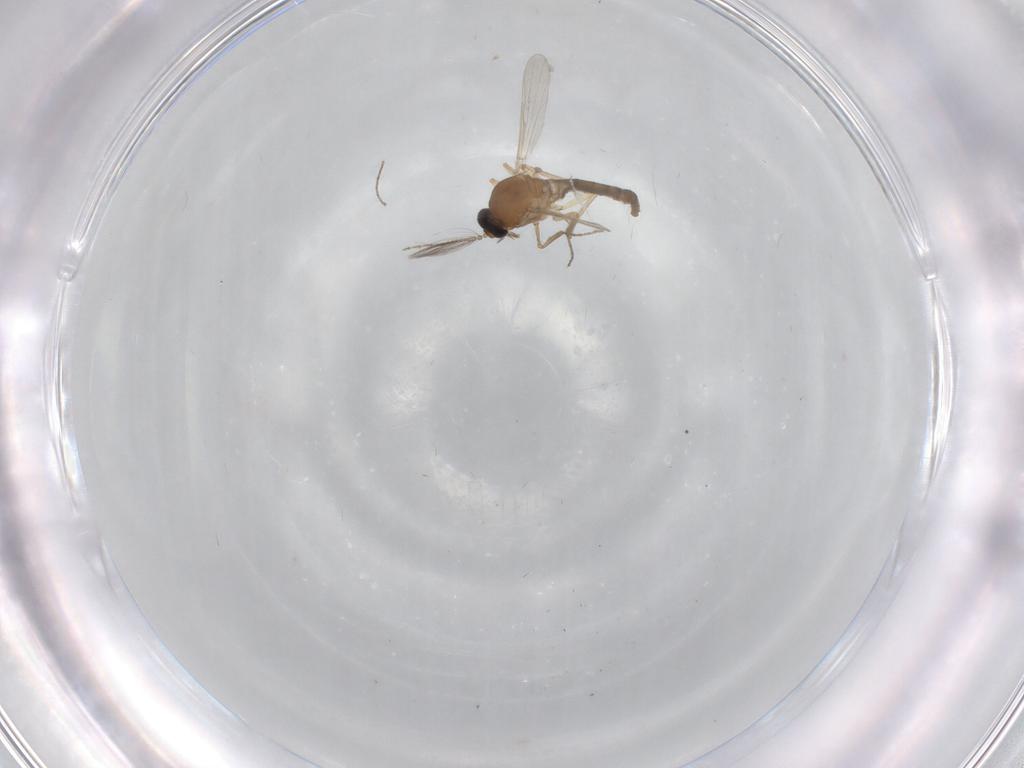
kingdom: Animalia
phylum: Arthropoda
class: Insecta
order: Diptera
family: Ceratopogonidae
